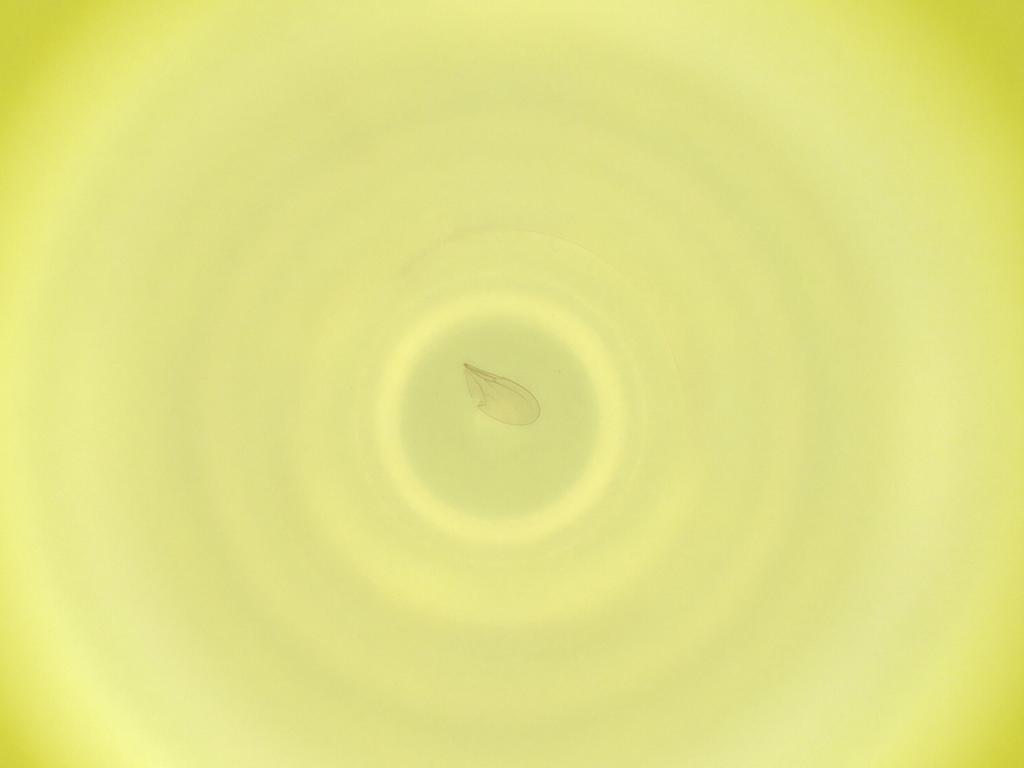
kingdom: Animalia
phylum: Arthropoda
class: Insecta
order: Diptera
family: Cecidomyiidae
